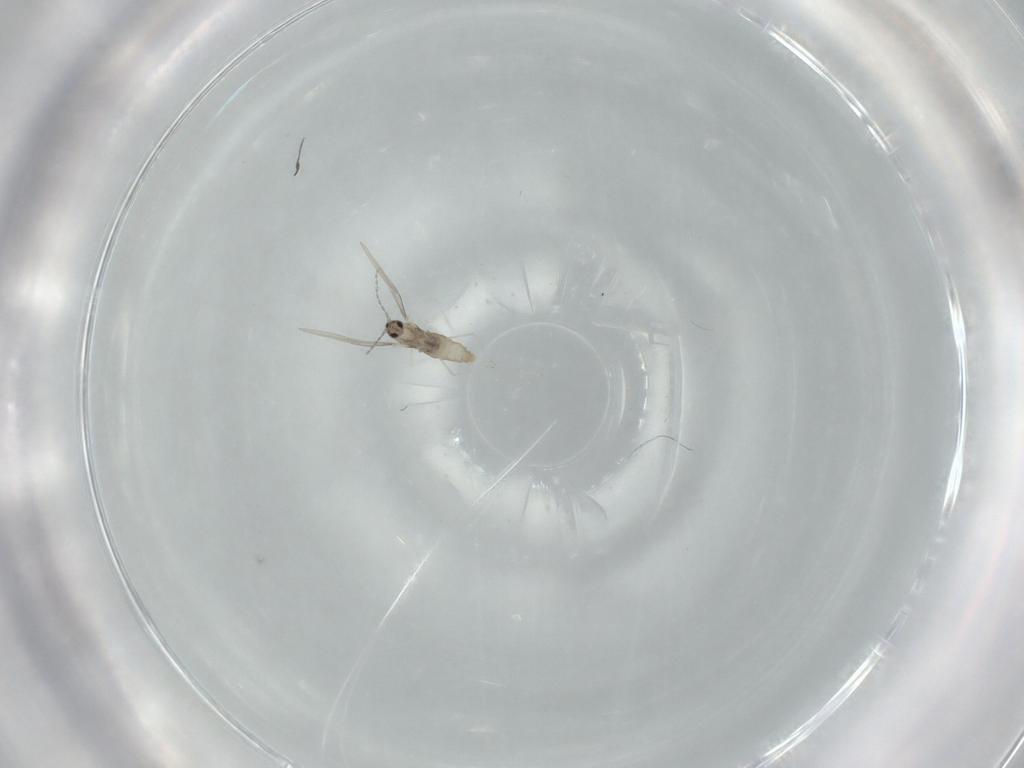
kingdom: Animalia
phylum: Arthropoda
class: Insecta
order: Diptera
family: Cecidomyiidae
